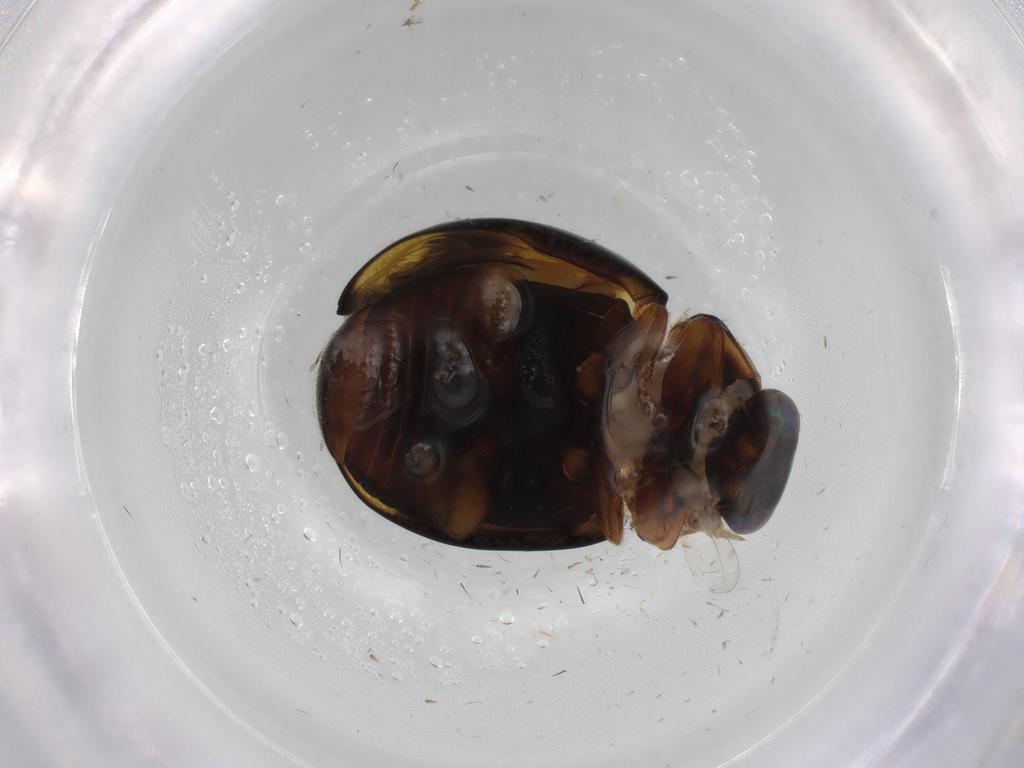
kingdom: Animalia
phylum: Arthropoda
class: Insecta
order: Coleoptera
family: Coccinellidae
